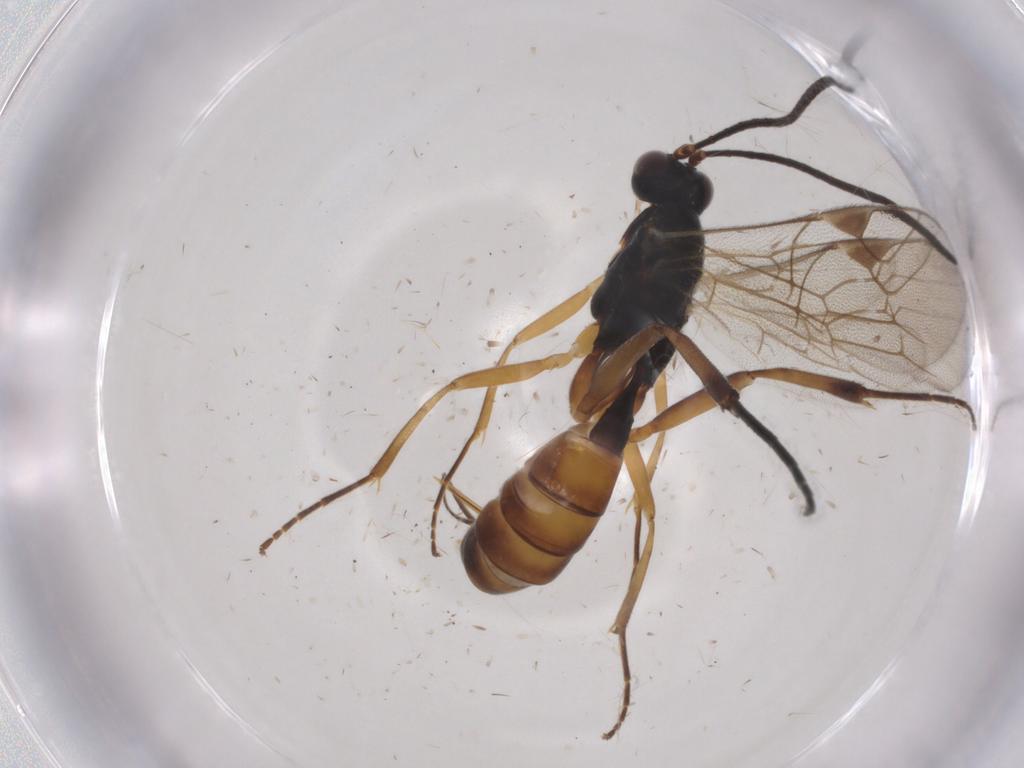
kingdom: Animalia
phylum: Arthropoda
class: Insecta
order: Hymenoptera
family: Ichneumonidae
